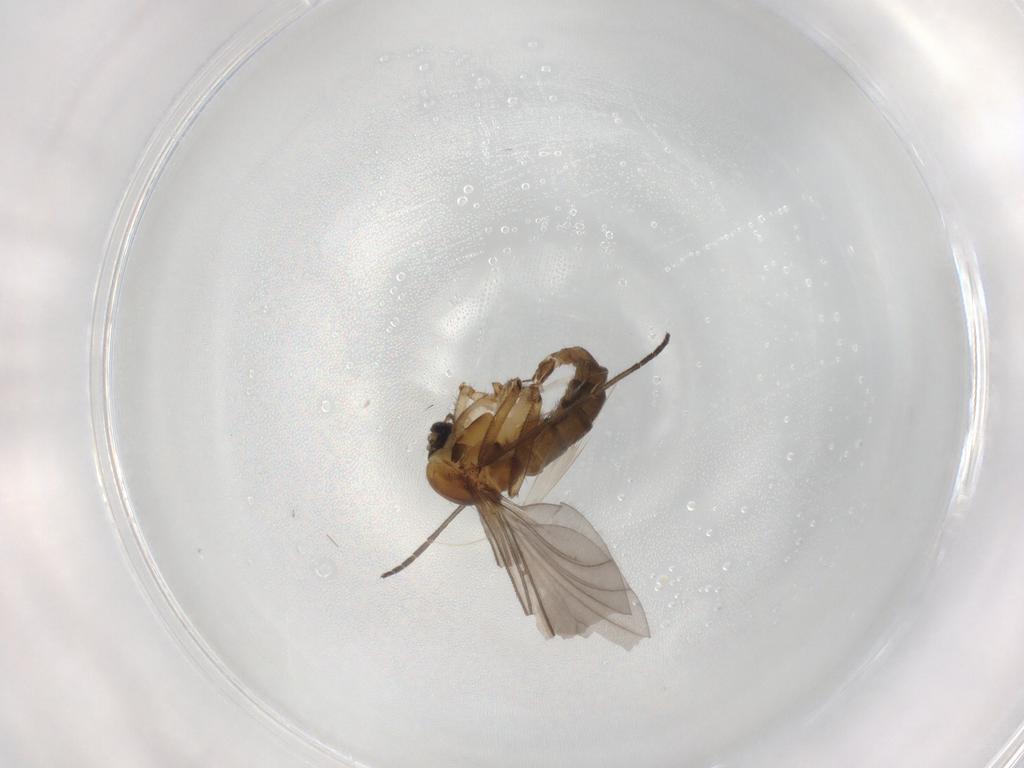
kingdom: Animalia
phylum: Arthropoda
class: Insecta
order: Diptera
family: Sciaridae
